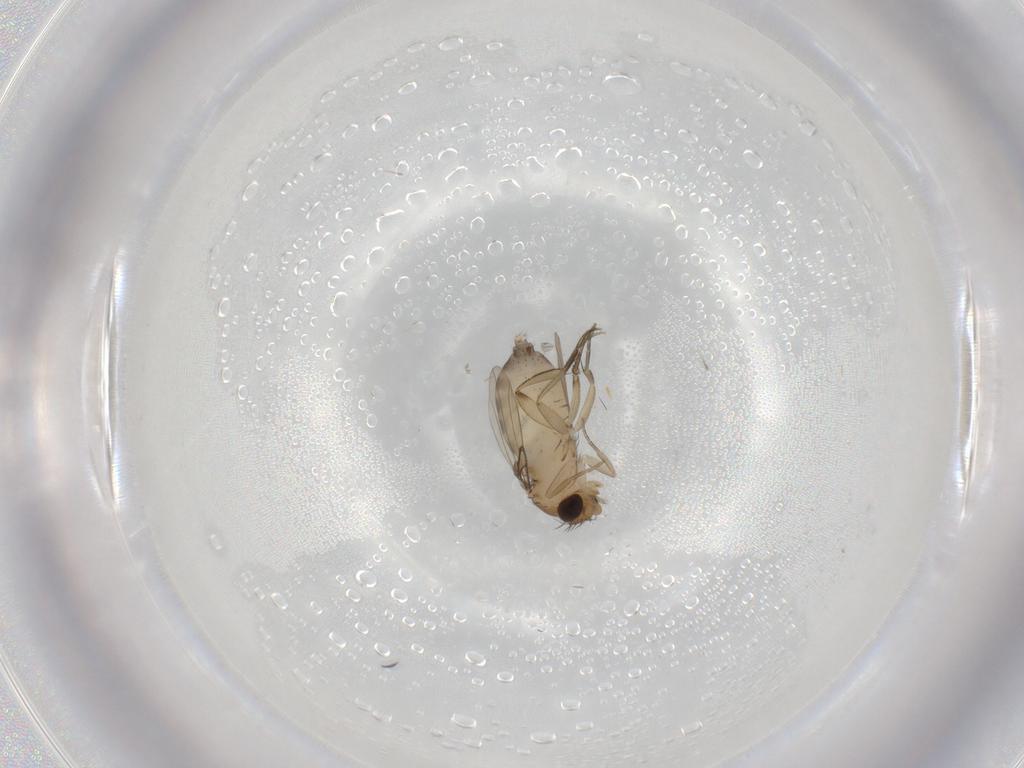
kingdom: Animalia
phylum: Arthropoda
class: Insecta
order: Diptera
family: Phoridae
